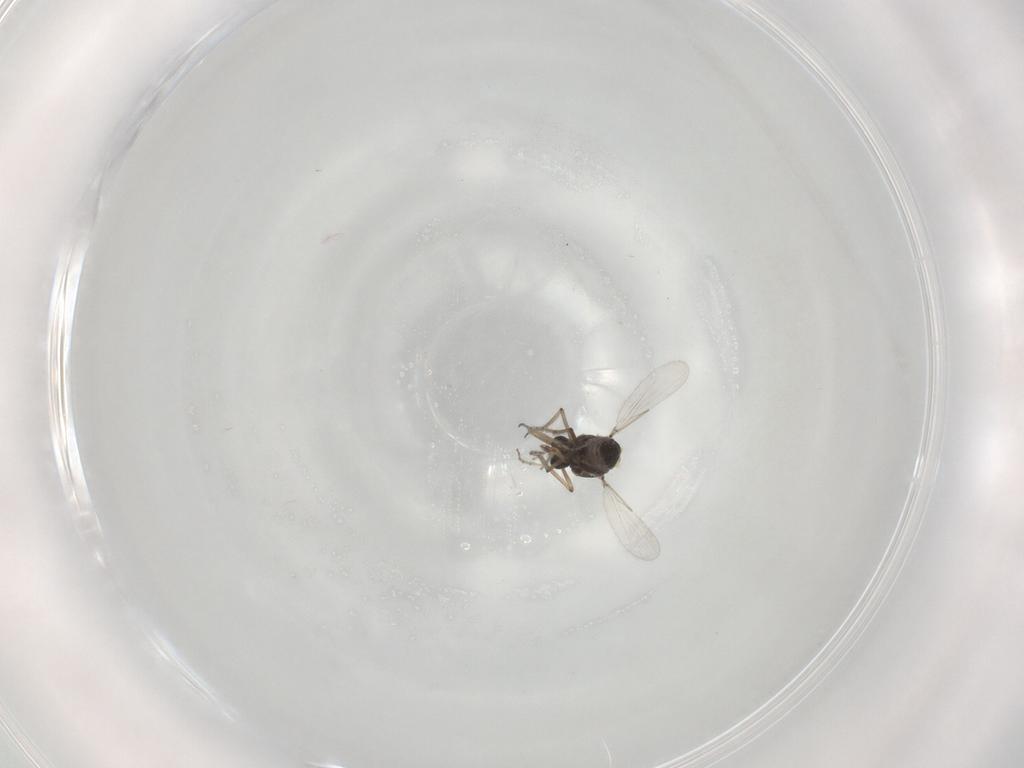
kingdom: Animalia
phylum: Arthropoda
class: Insecta
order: Diptera
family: Ceratopogonidae
